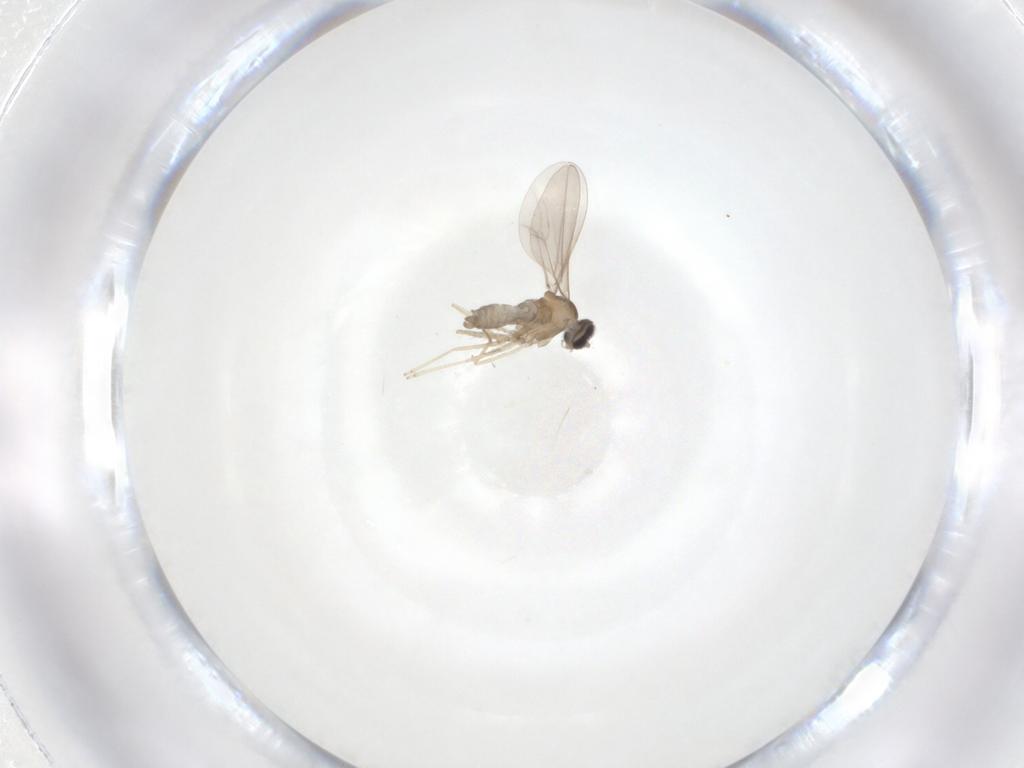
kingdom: Animalia
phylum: Arthropoda
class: Insecta
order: Diptera
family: Cecidomyiidae
